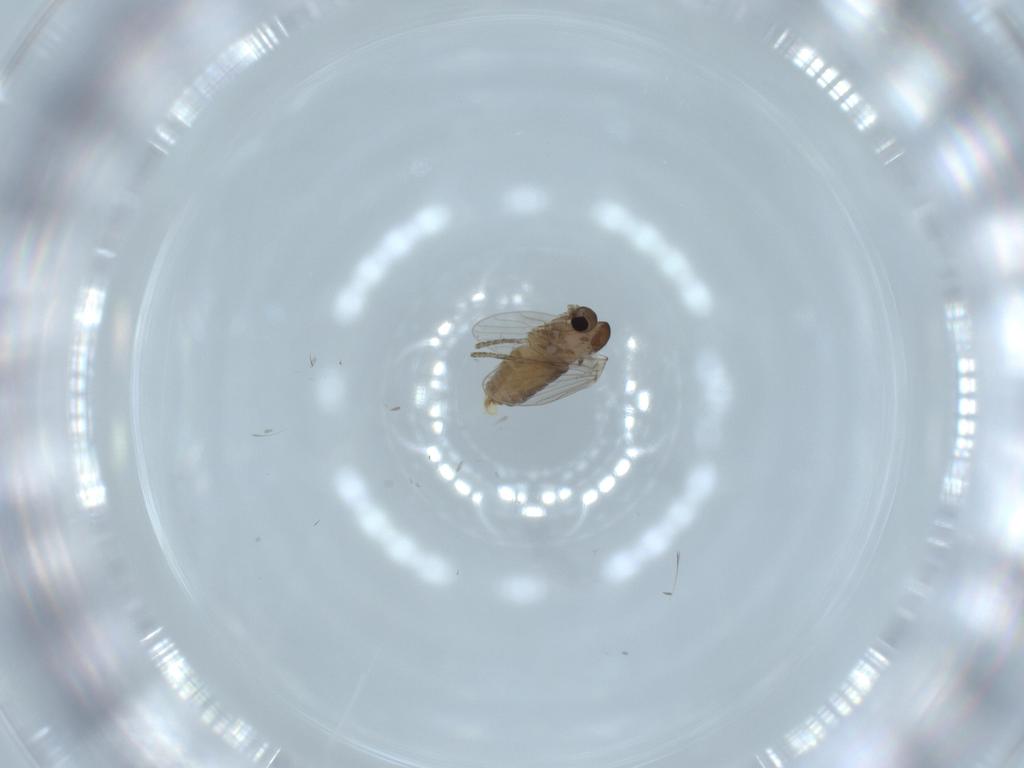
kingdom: Animalia
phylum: Arthropoda
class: Insecta
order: Diptera
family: Psychodidae
